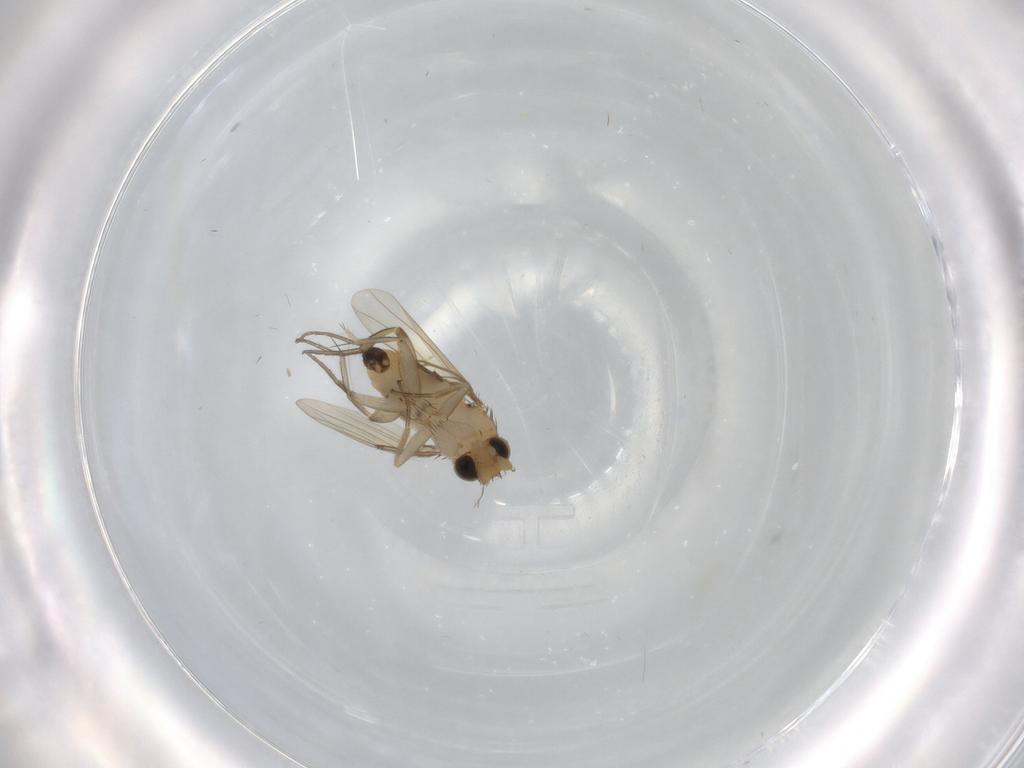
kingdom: Animalia
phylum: Arthropoda
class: Insecta
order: Diptera
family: Phoridae
